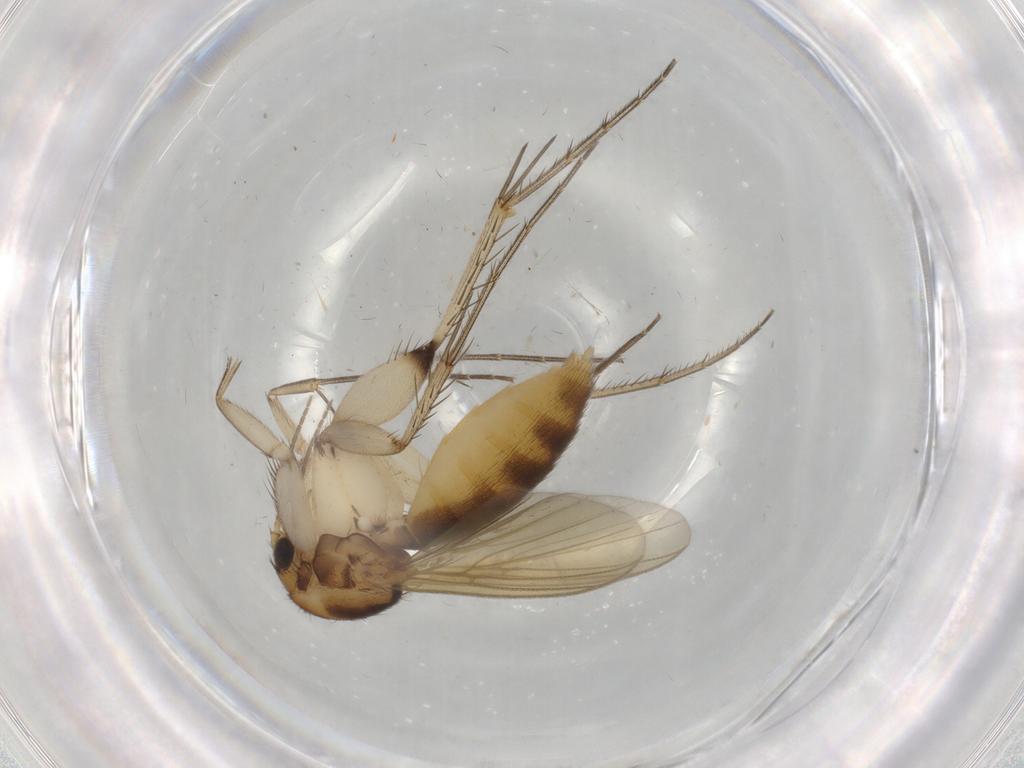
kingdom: Animalia
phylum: Arthropoda
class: Insecta
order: Diptera
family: Mycetophilidae
